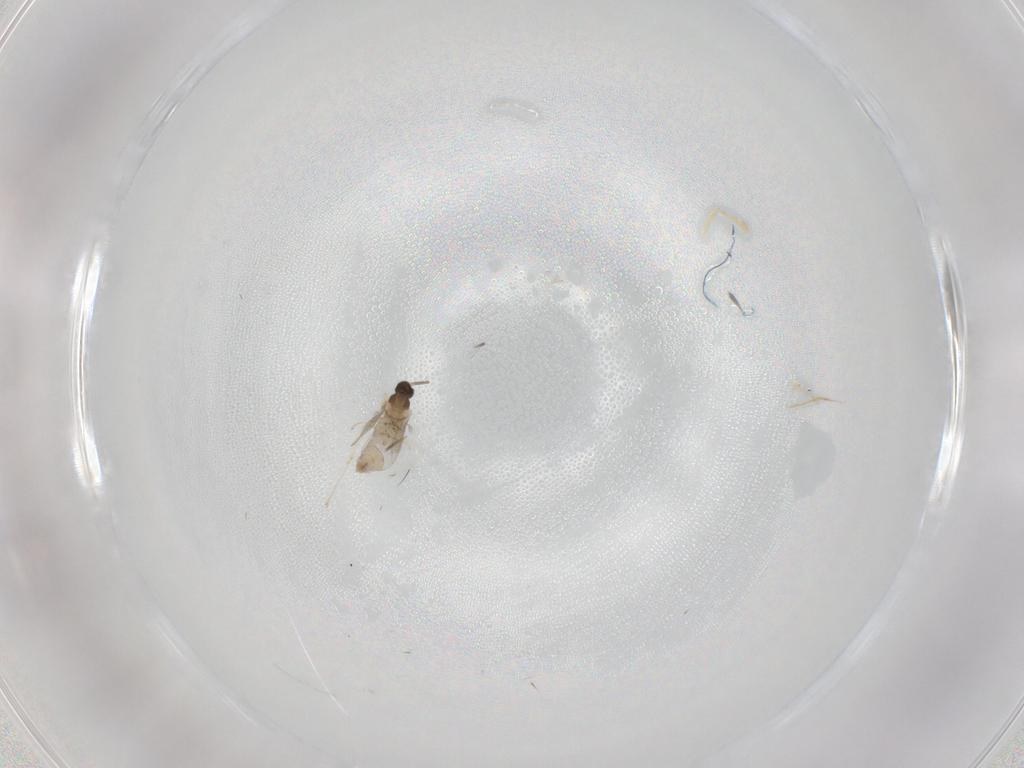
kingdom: Animalia
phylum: Arthropoda
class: Insecta
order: Diptera
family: Cecidomyiidae
